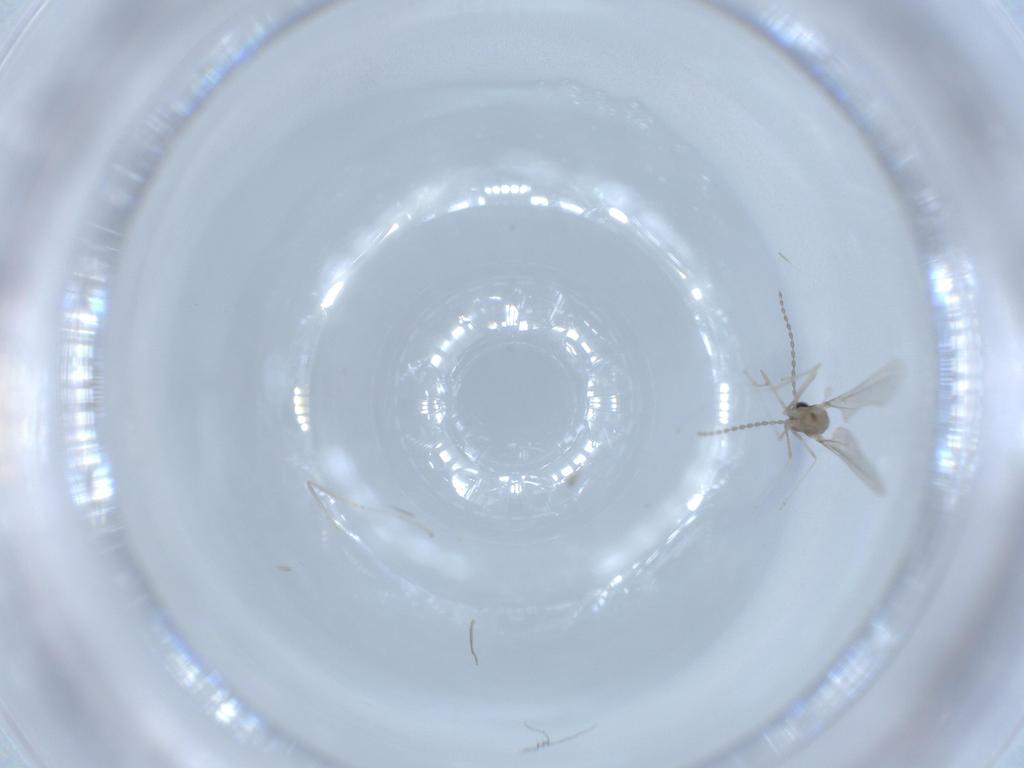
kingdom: Animalia
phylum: Arthropoda
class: Insecta
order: Diptera
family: Cecidomyiidae
